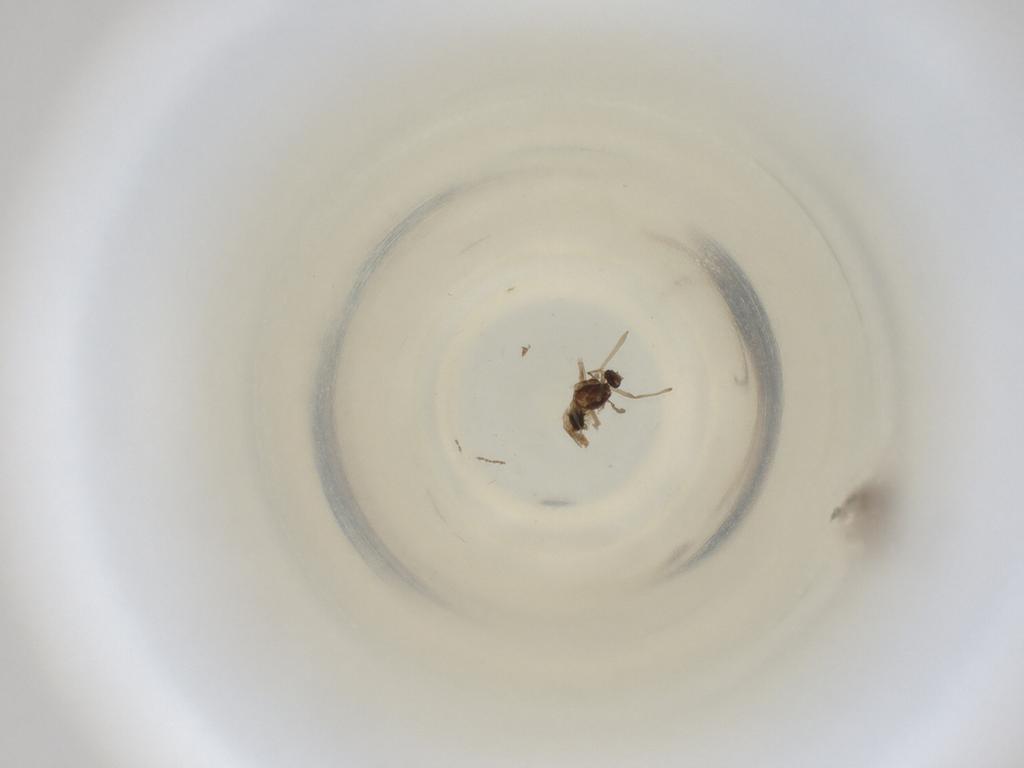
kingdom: Animalia
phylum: Arthropoda
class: Insecta
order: Diptera
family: Cecidomyiidae
